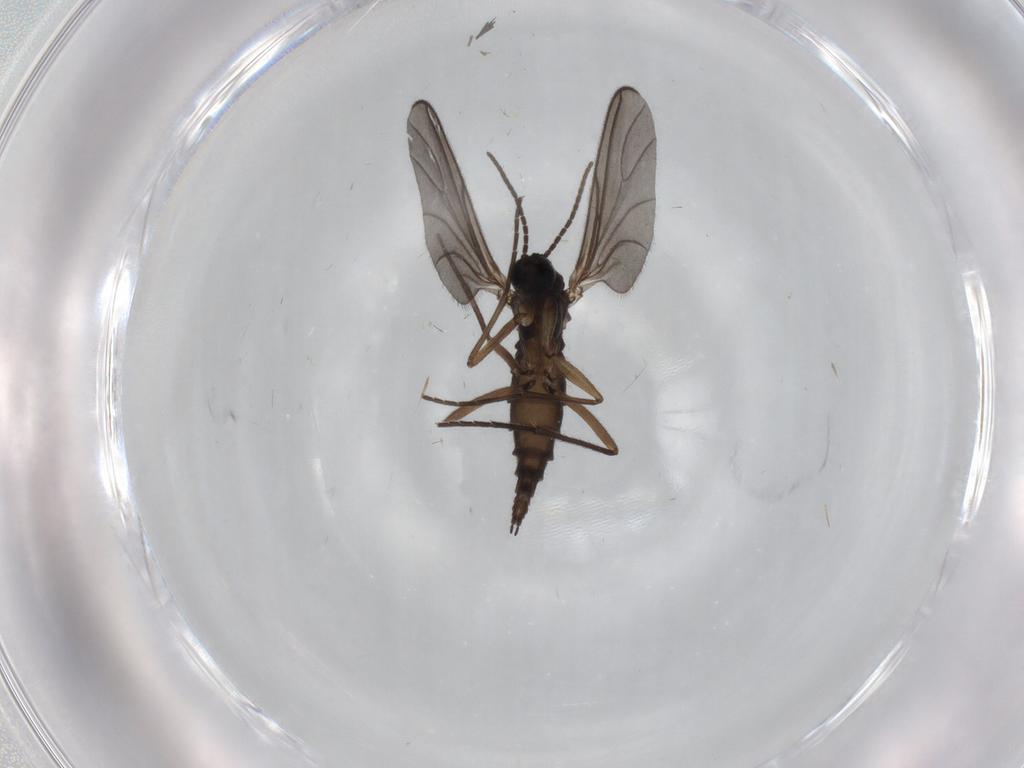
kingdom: Animalia
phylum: Arthropoda
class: Insecta
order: Diptera
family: Sciaridae
